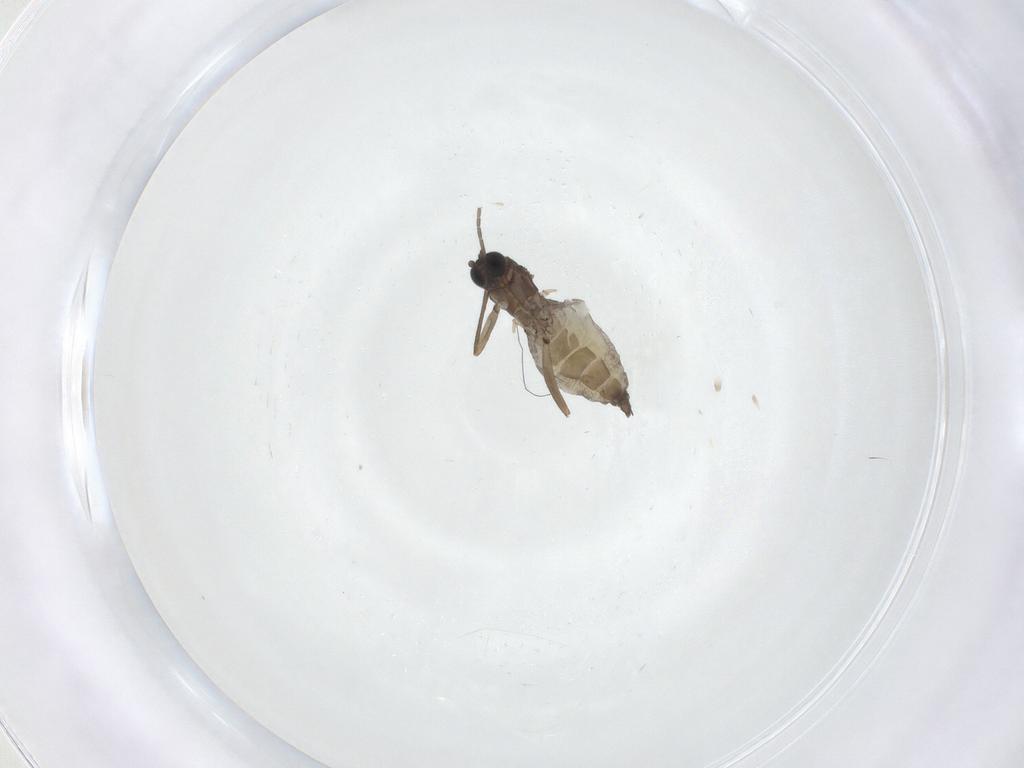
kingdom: Animalia
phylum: Arthropoda
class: Insecta
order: Diptera
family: Sciaridae
